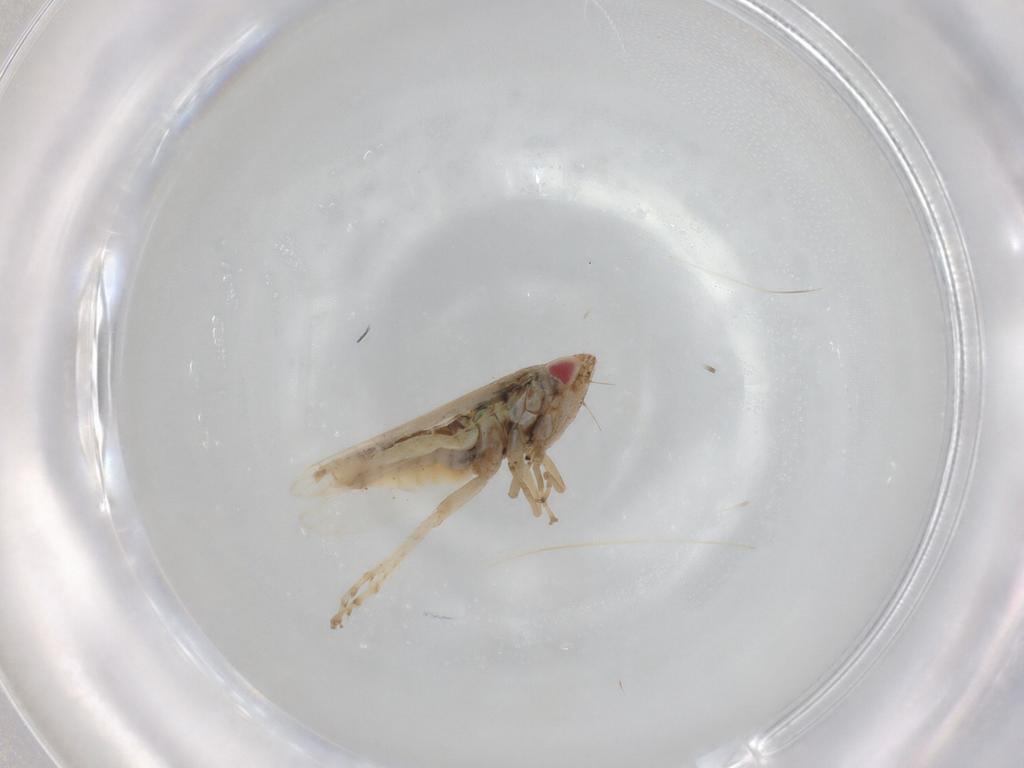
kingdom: Animalia
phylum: Arthropoda
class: Insecta
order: Hemiptera
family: Cicadellidae
